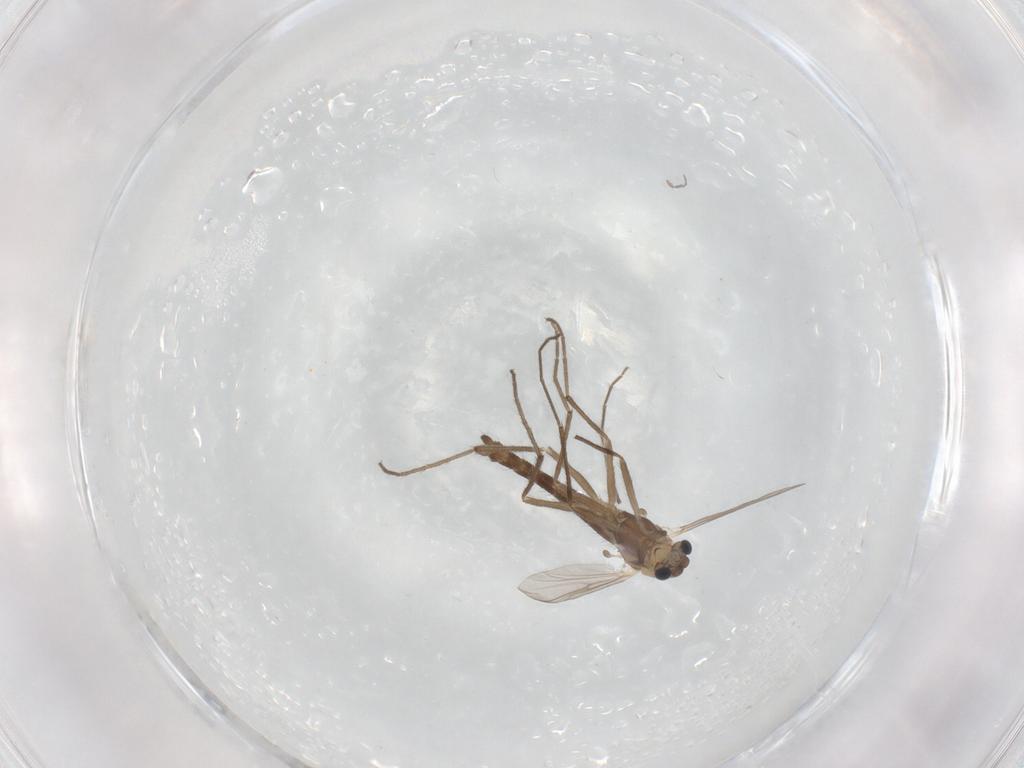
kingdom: Animalia
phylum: Arthropoda
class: Insecta
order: Diptera
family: Chironomidae
